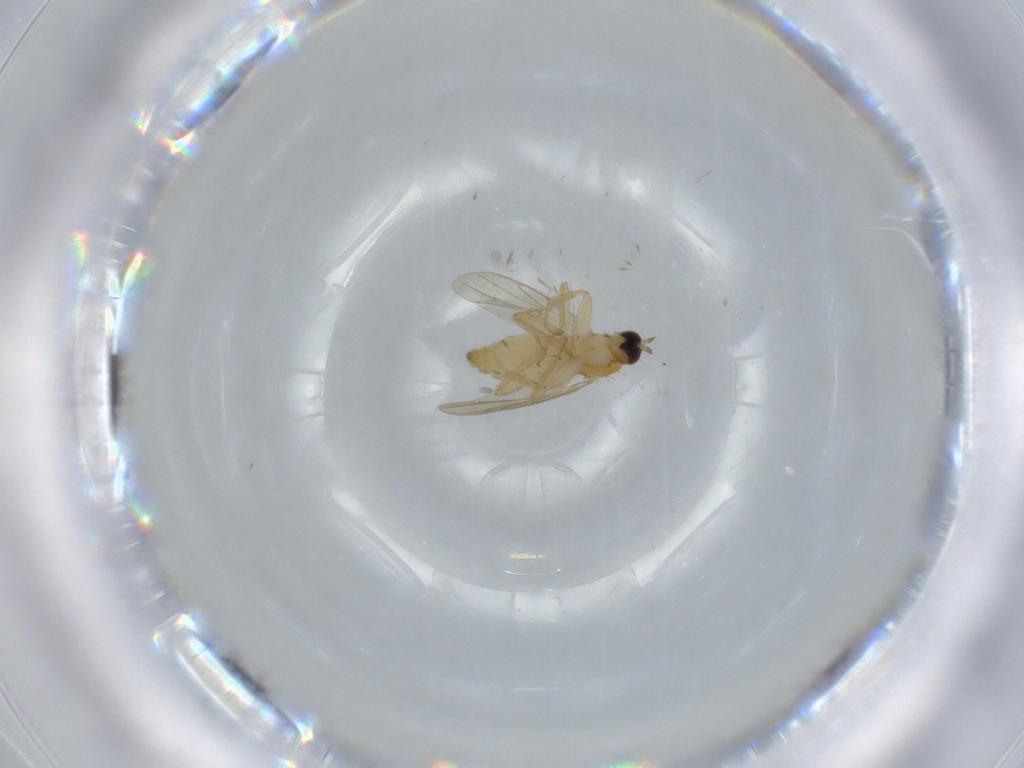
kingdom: Animalia
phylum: Arthropoda
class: Insecta
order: Diptera
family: Hybotidae
